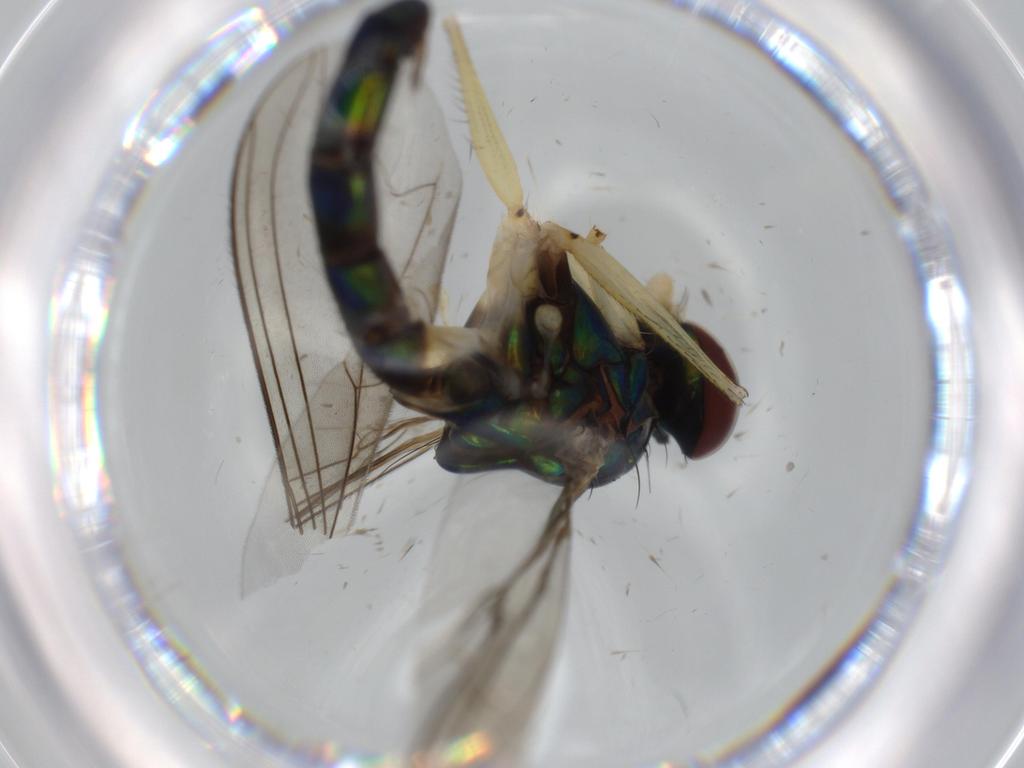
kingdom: Animalia
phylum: Arthropoda
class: Insecta
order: Diptera
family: Dolichopodidae
